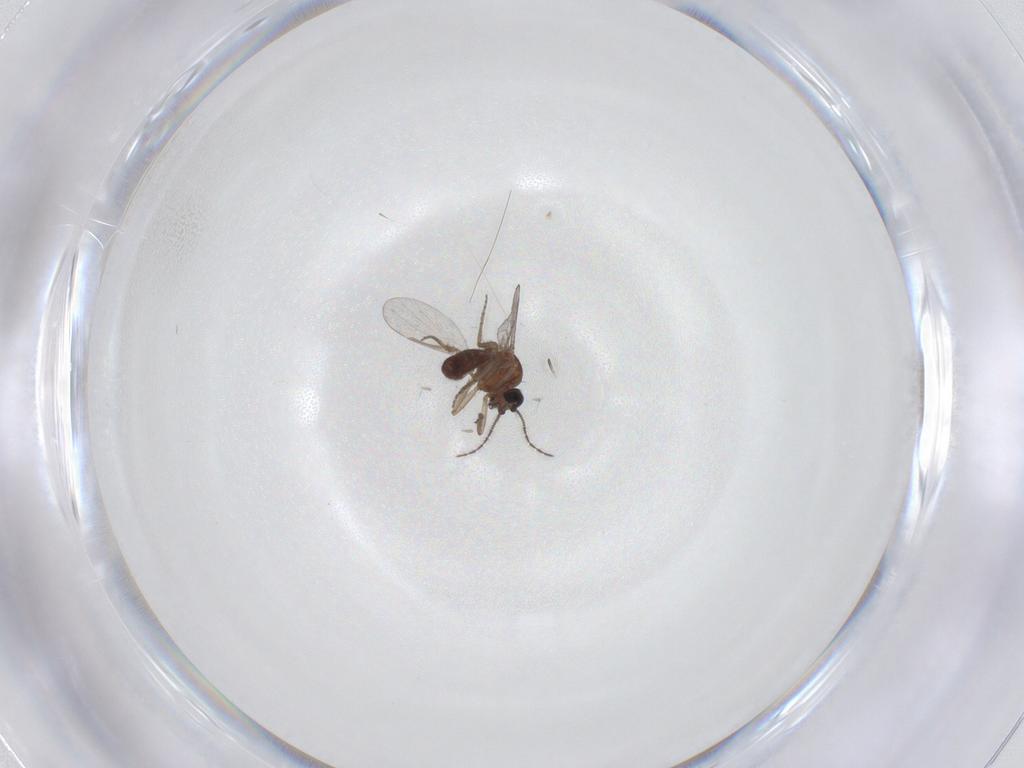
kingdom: Animalia
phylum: Arthropoda
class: Insecta
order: Diptera
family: Ceratopogonidae
